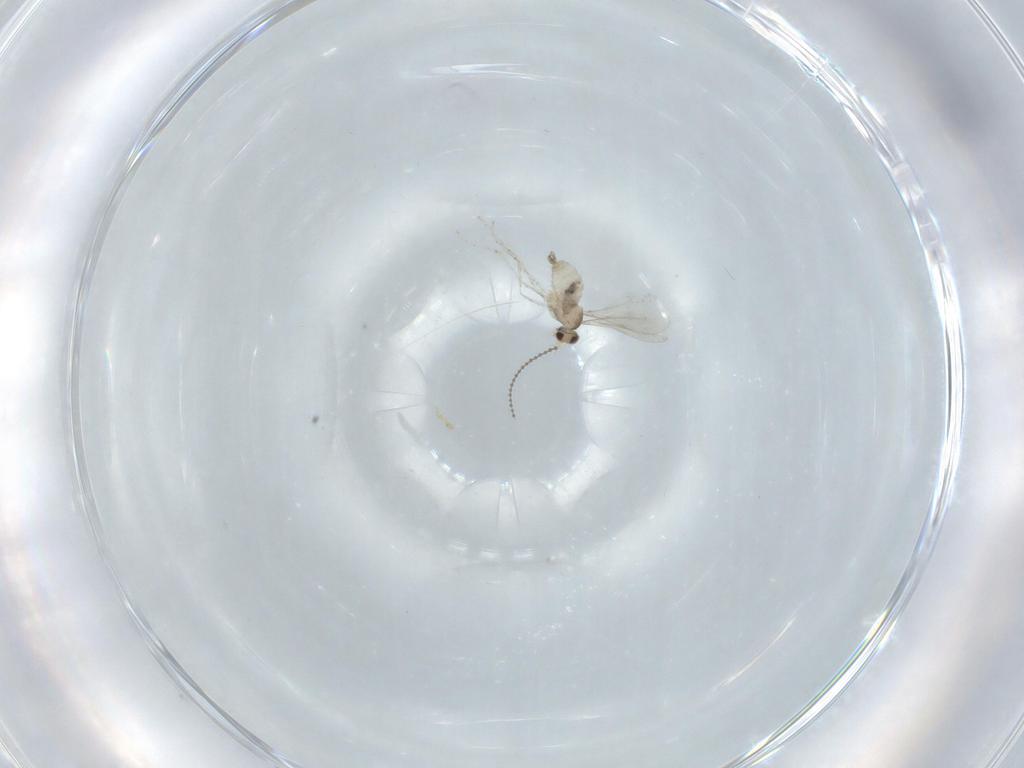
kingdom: Animalia
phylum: Arthropoda
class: Insecta
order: Diptera
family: Cecidomyiidae
